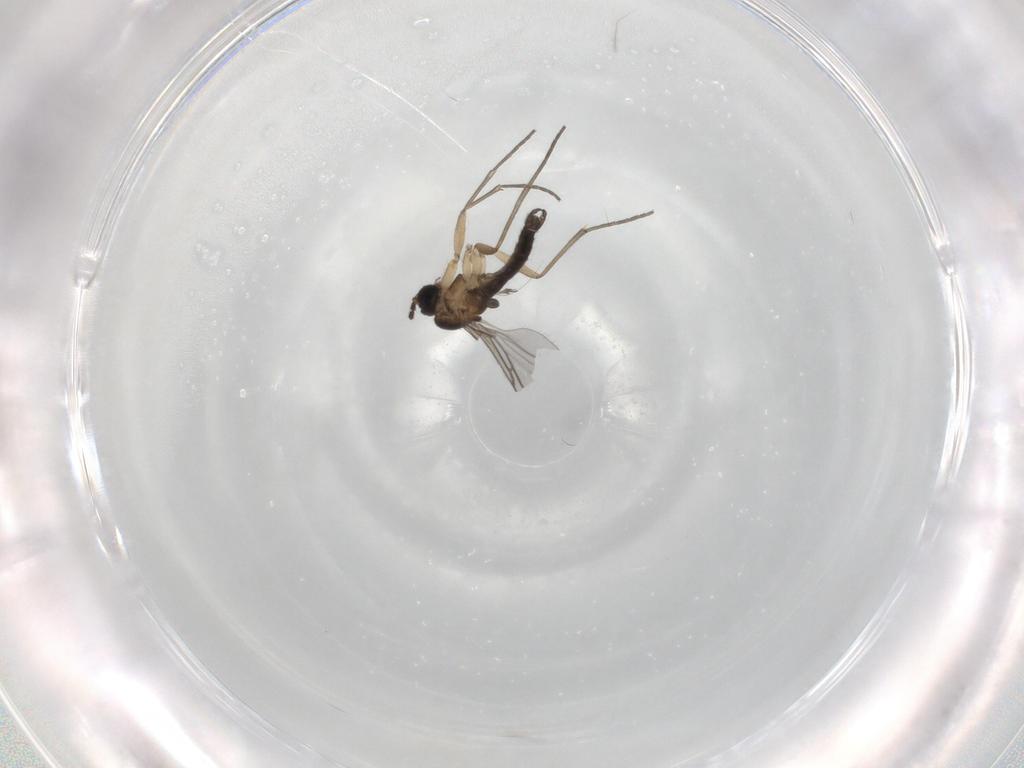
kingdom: Animalia
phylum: Arthropoda
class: Insecta
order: Diptera
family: Sciaridae
